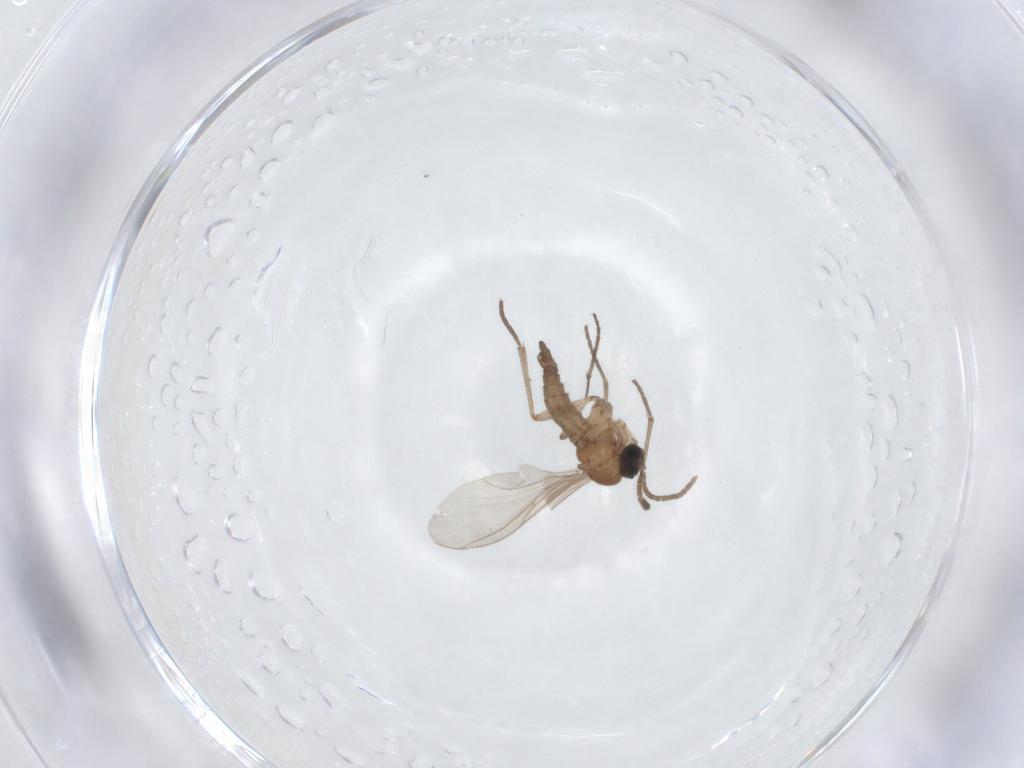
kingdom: Animalia
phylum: Arthropoda
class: Insecta
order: Diptera
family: Sciaridae
